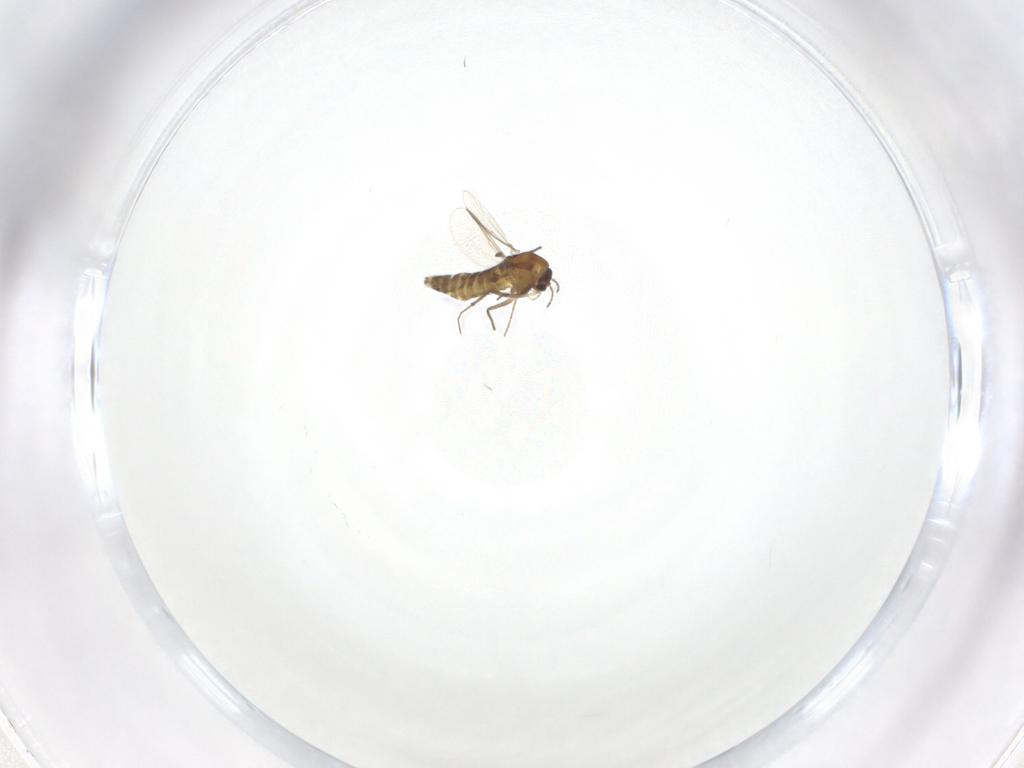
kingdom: Animalia
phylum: Arthropoda
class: Insecta
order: Diptera
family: Chironomidae
